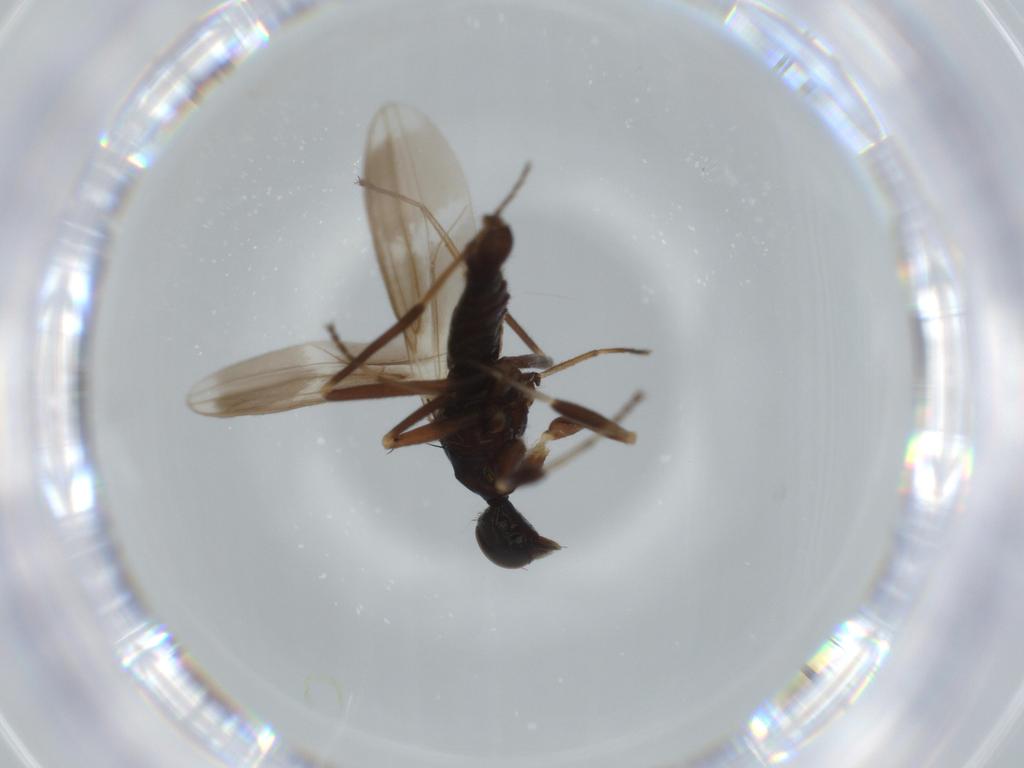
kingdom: Animalia
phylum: Arthropoda
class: Insecta
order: Diptera
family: Hybotidae
